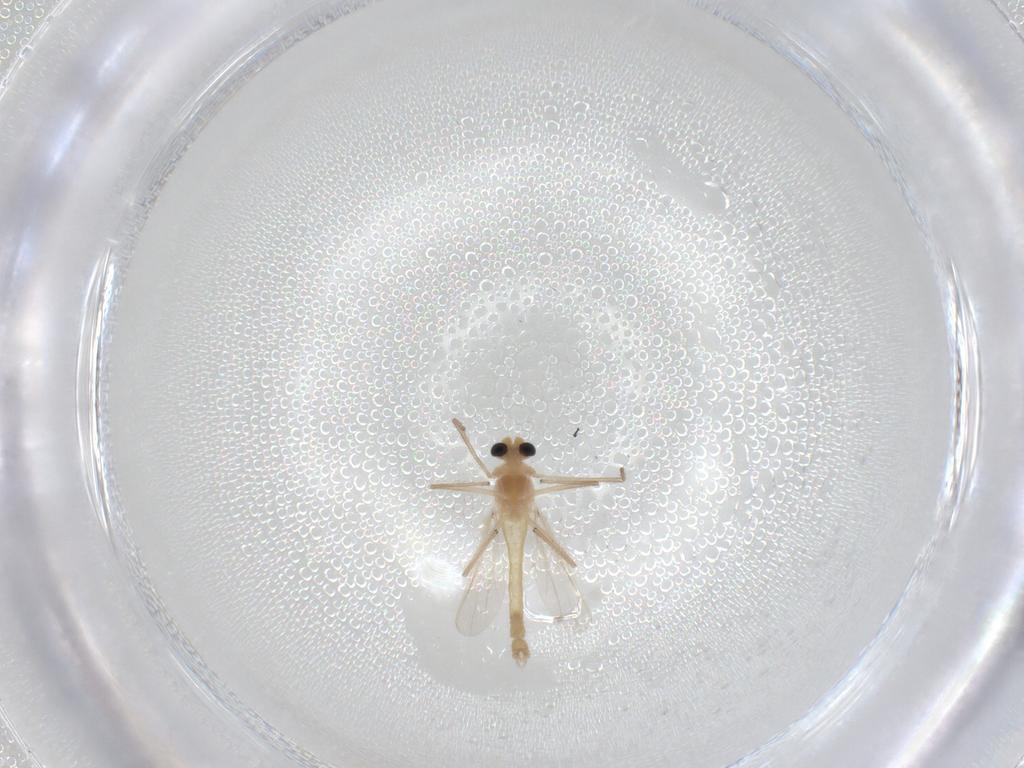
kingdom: Animalia
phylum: Arthropoda
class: Insecta
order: Diptera
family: Chironomidae
